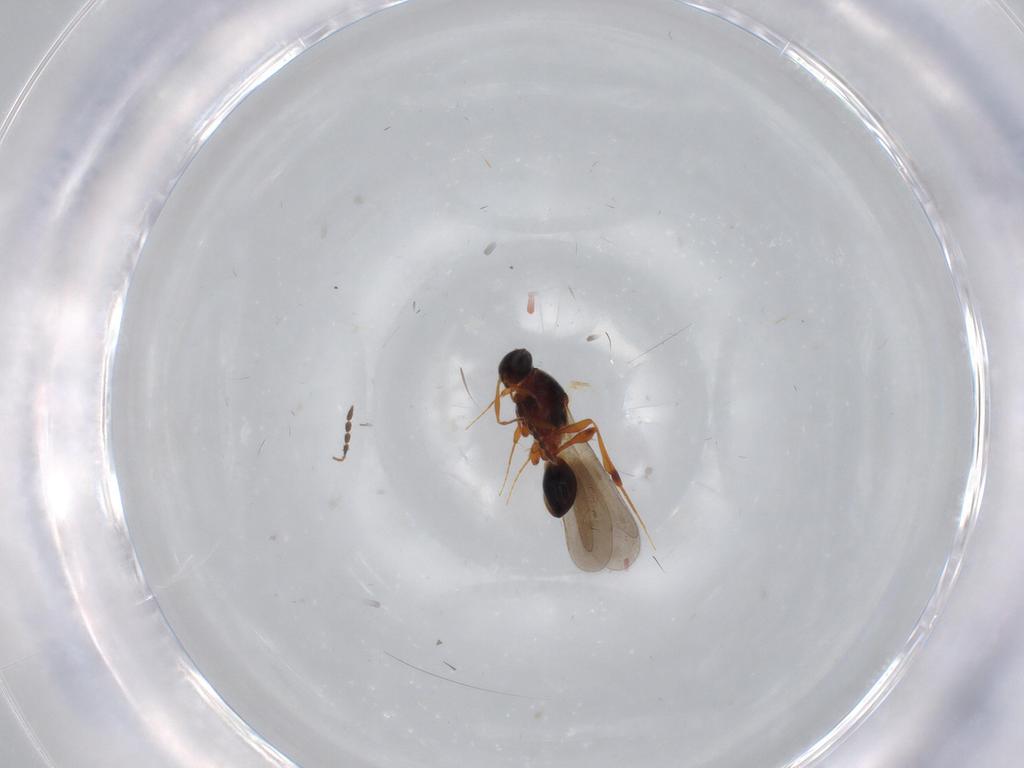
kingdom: Animalia
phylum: Arthropoda
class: Insecta
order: Hymenoptera
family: Platygastridae
